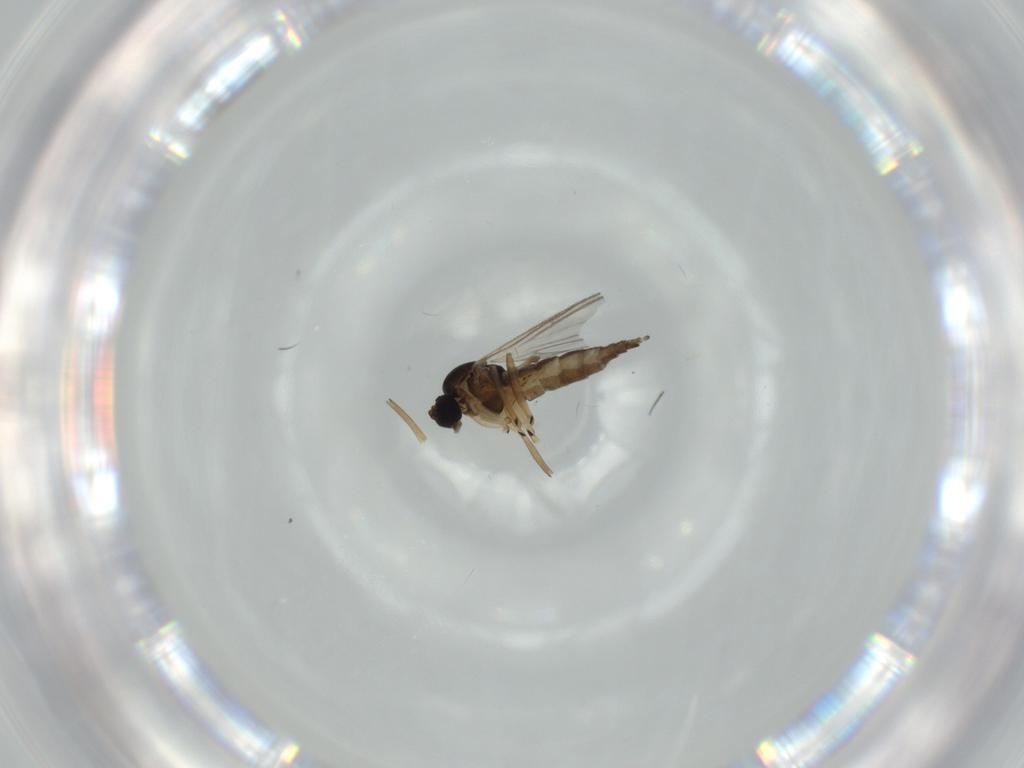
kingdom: Animalia
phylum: Arthropoda
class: Insecta
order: Diptera
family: Sciaridae
